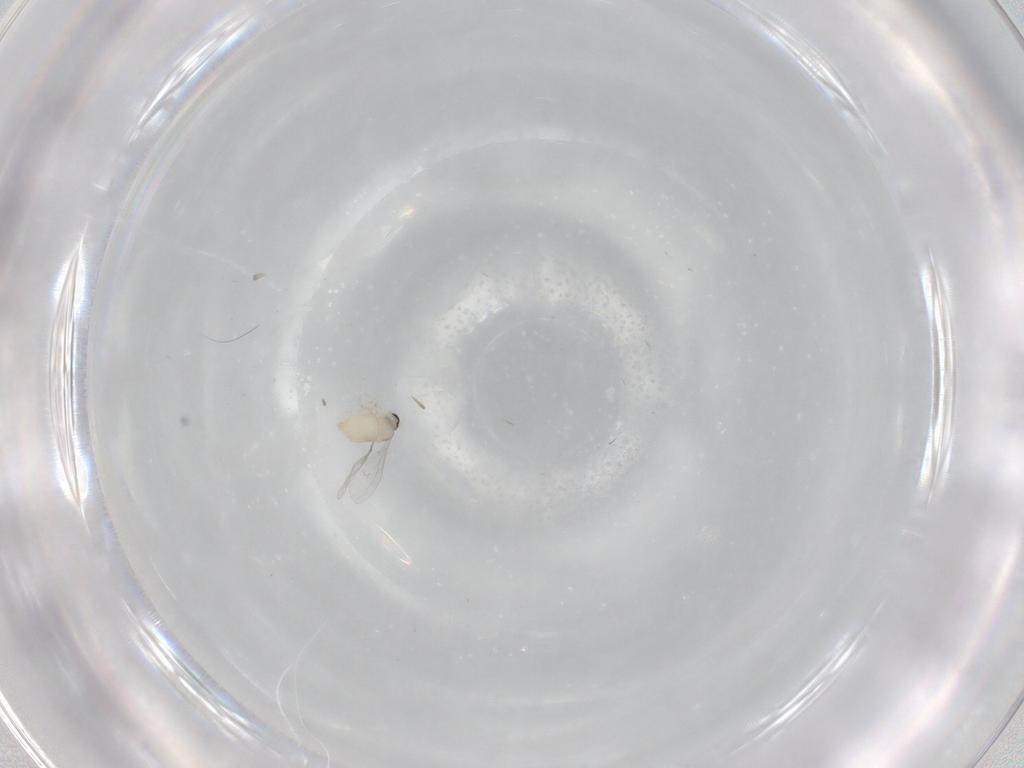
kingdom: Animalia
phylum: Arthropoda
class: Insecta
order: Diptera
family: Cecidomyiidae
